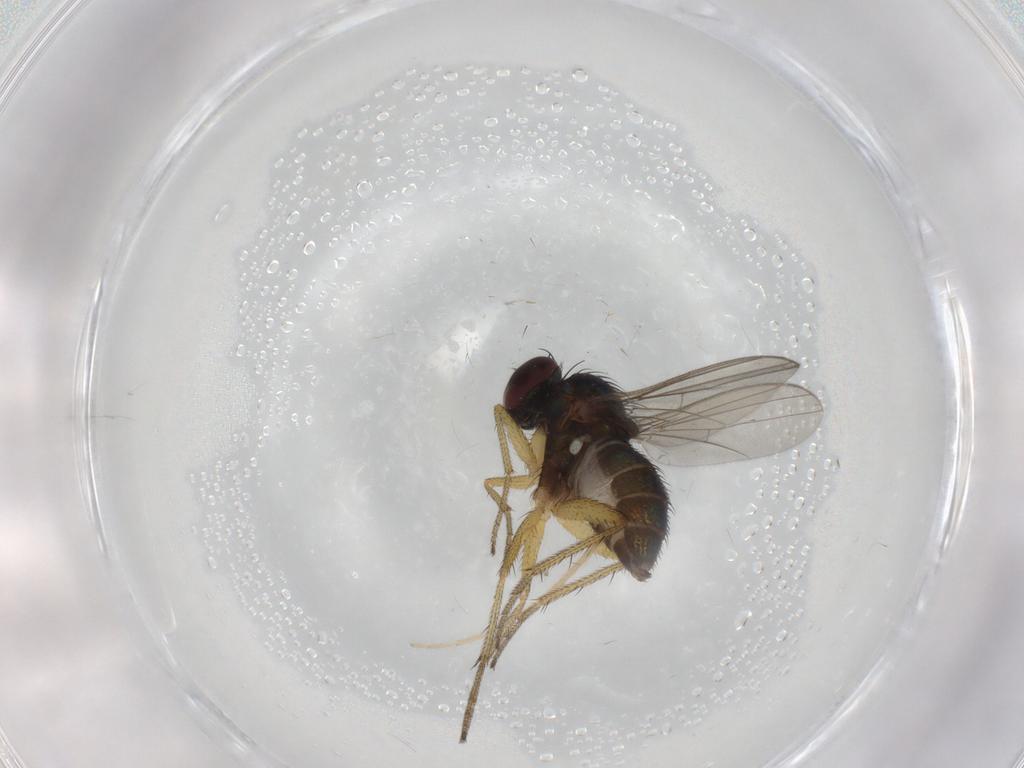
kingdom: Animalia
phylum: Arthropoda
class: Insecta
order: Diptera
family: Dolichopodidae
